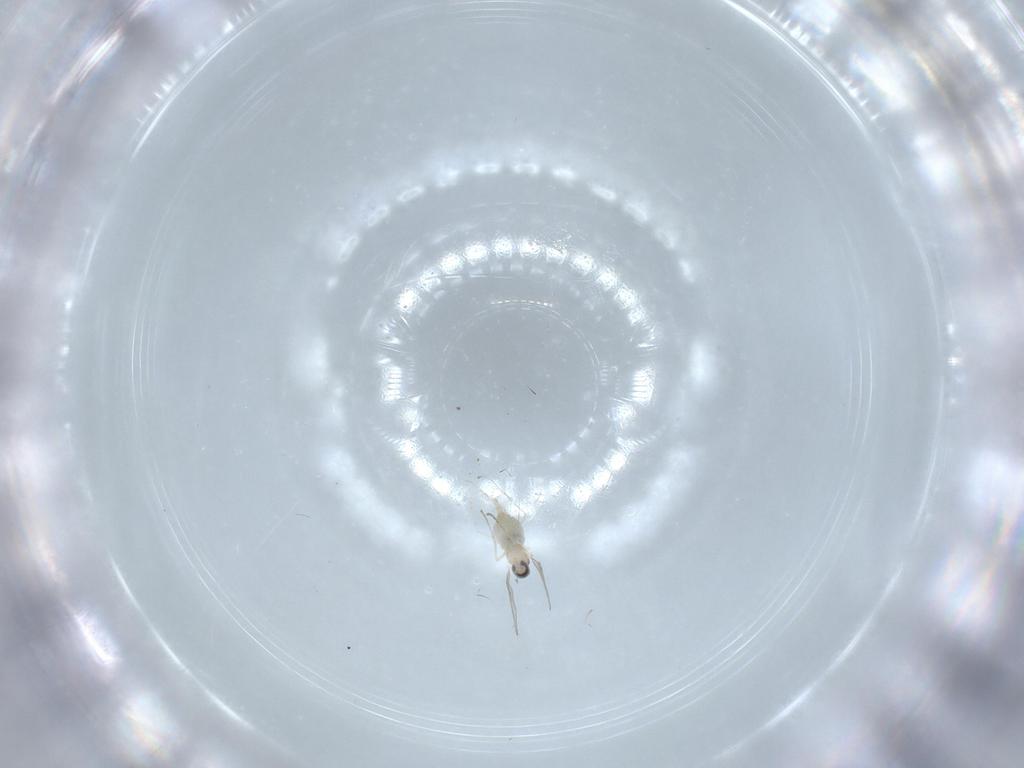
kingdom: Animalia
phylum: Arthropoda
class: Insecta
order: Diptera
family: Cecidomyiidae
